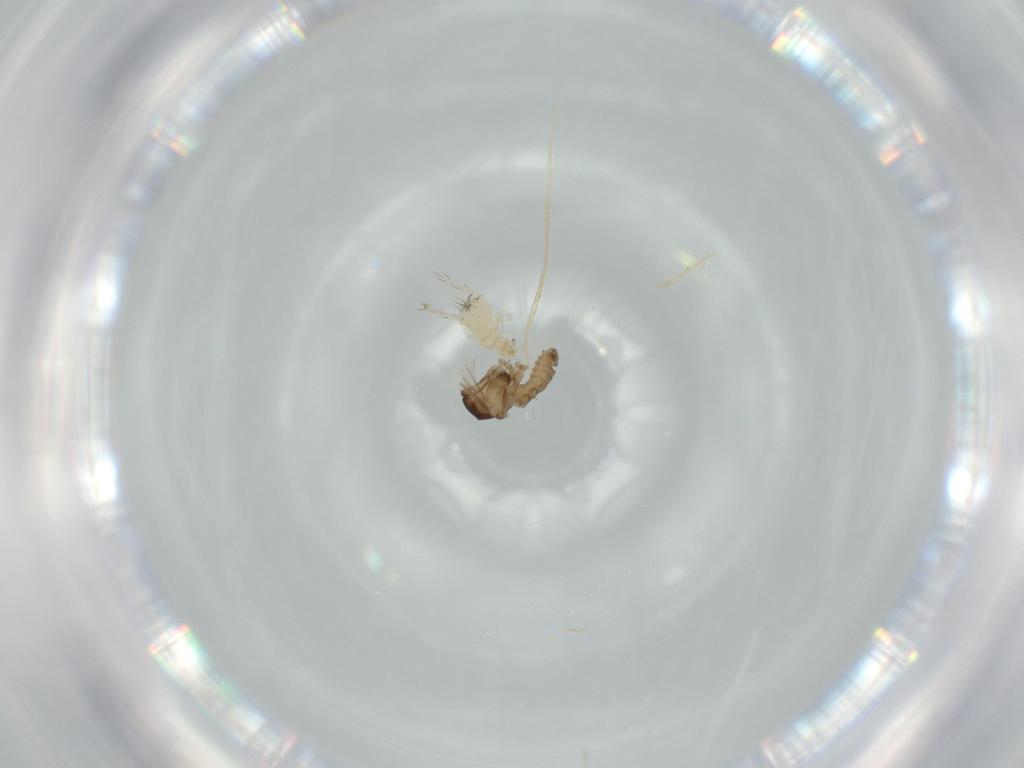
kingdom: Animalia
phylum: Arthropoda
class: Insecta
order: Diptera
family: Cecidomyiidae
